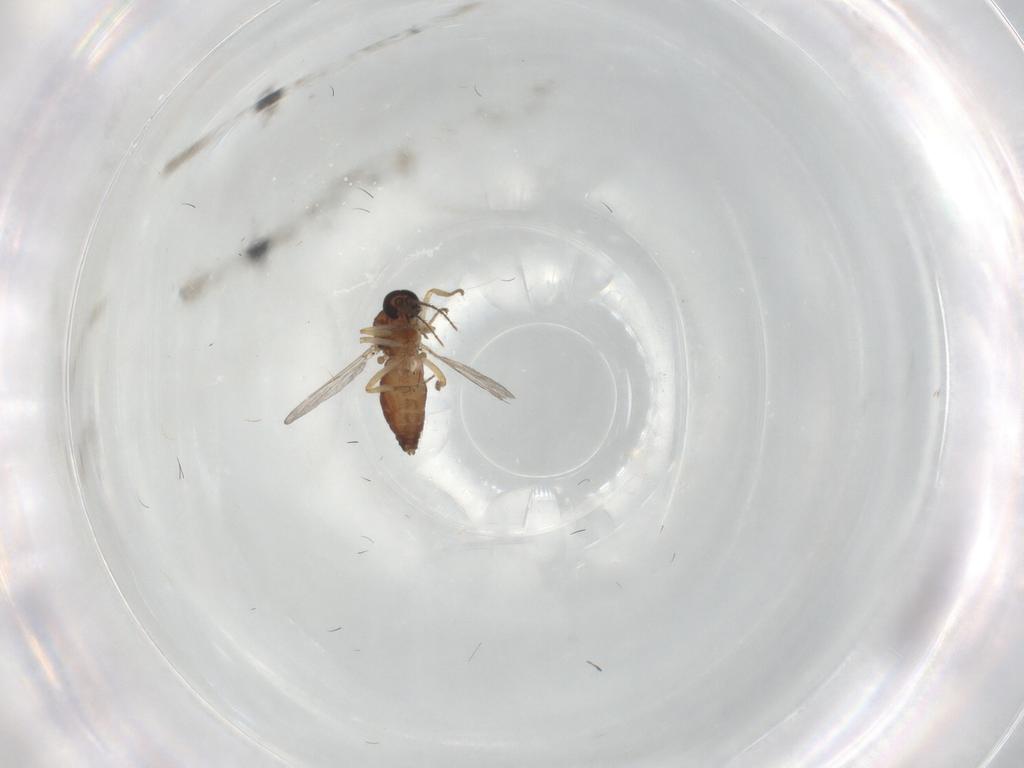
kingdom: Animalia
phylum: Arthropoda
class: Insecta
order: Diptera
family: Ceratopogonidae
